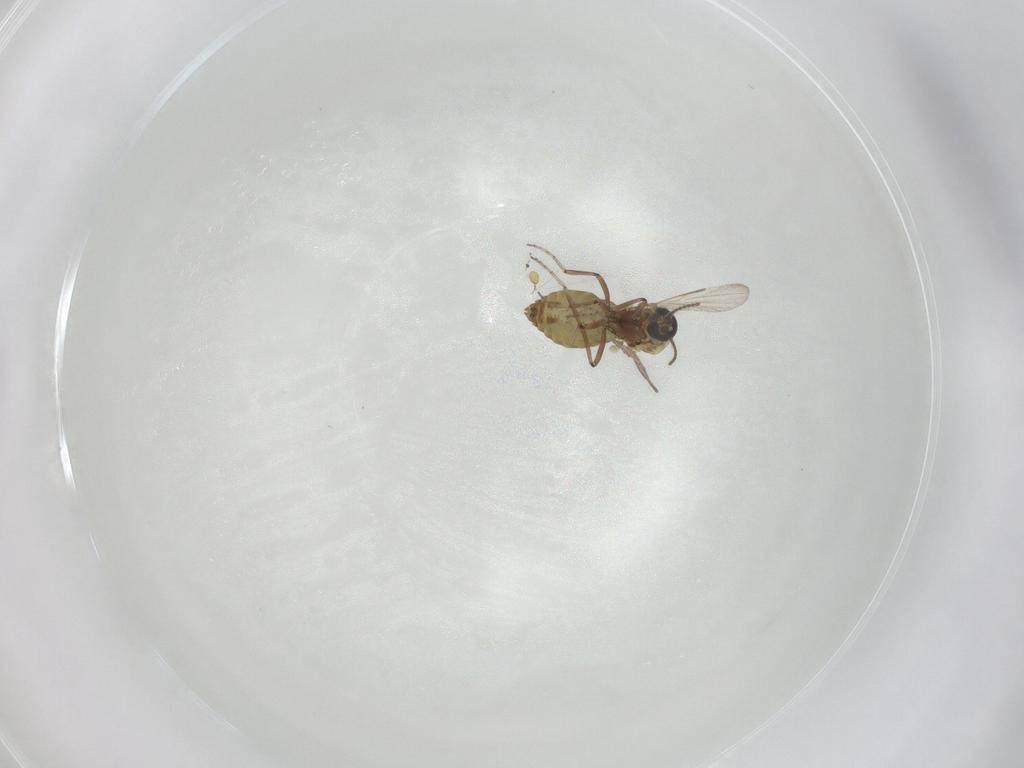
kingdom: Animalia
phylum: Arthropoda
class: Insecta
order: Diptera
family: Ceratopogonidae
